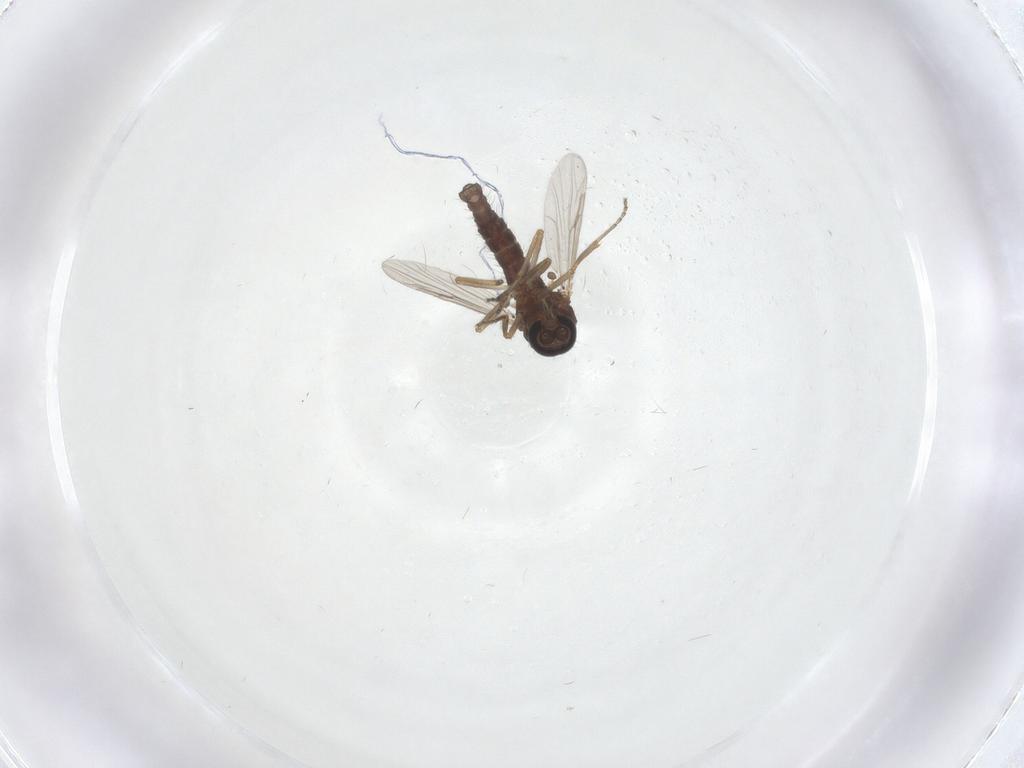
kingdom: Animalia
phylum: Arthropoda
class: Insecta
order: Diptera
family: Ceratopogonidae
